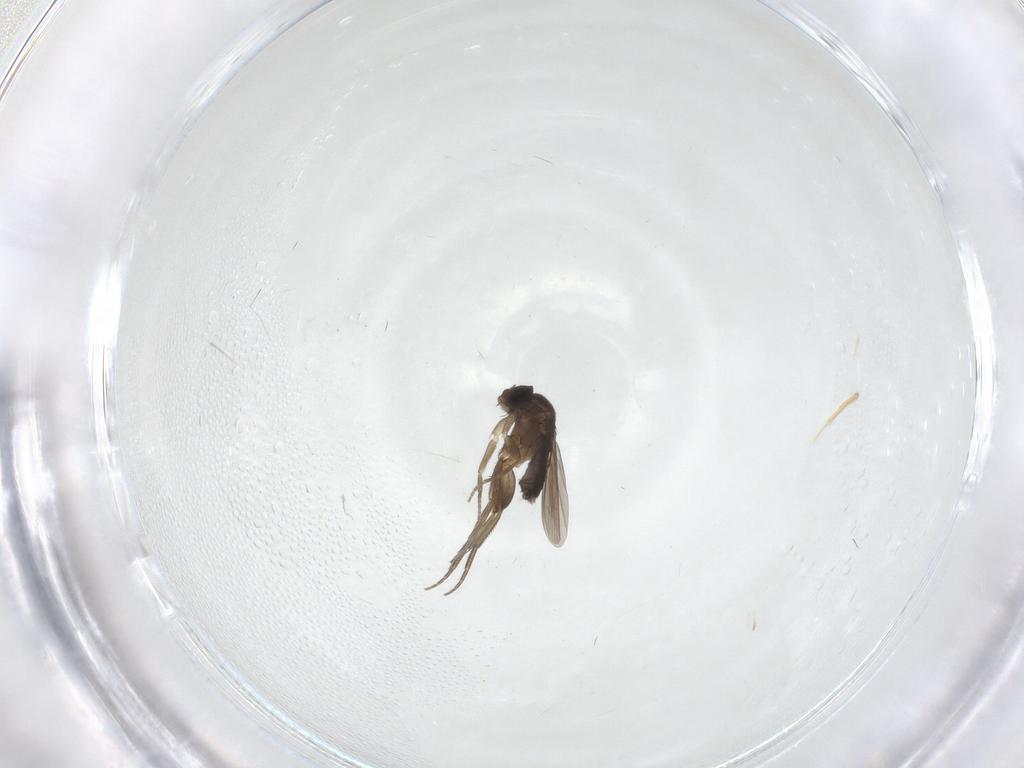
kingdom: Animalia
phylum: Arthropoda
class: Insecta
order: Diptera
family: Phoridae
